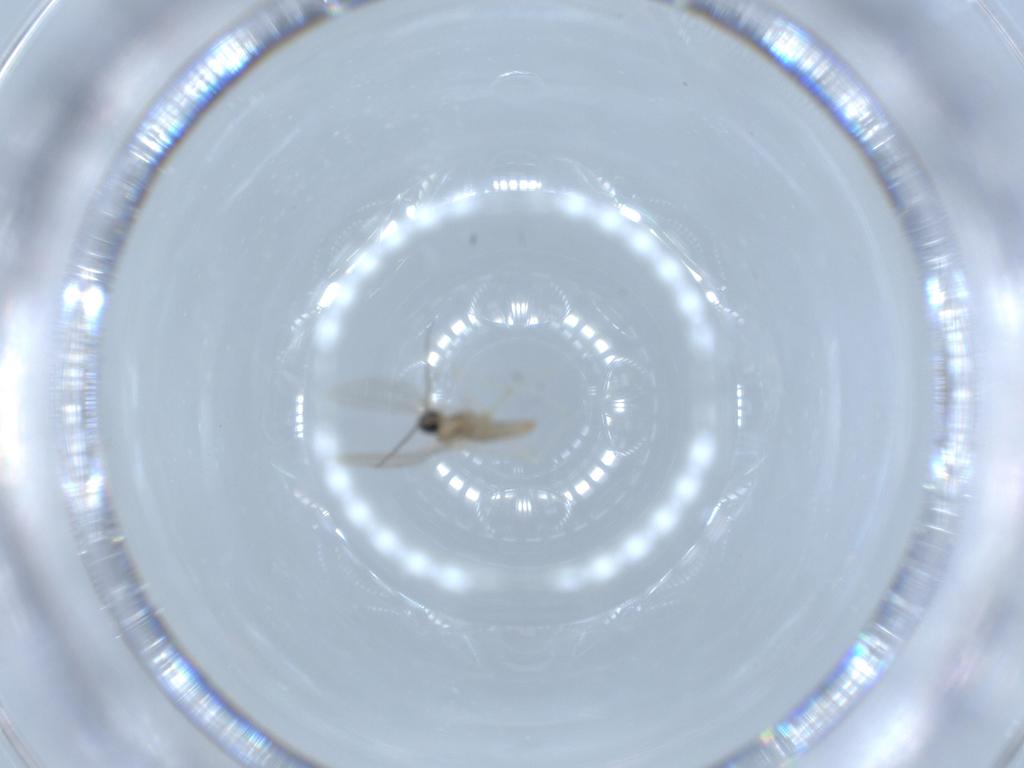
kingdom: Animalia
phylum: Arthropoda
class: Insecta
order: Diptera
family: Cecidomyiidae
